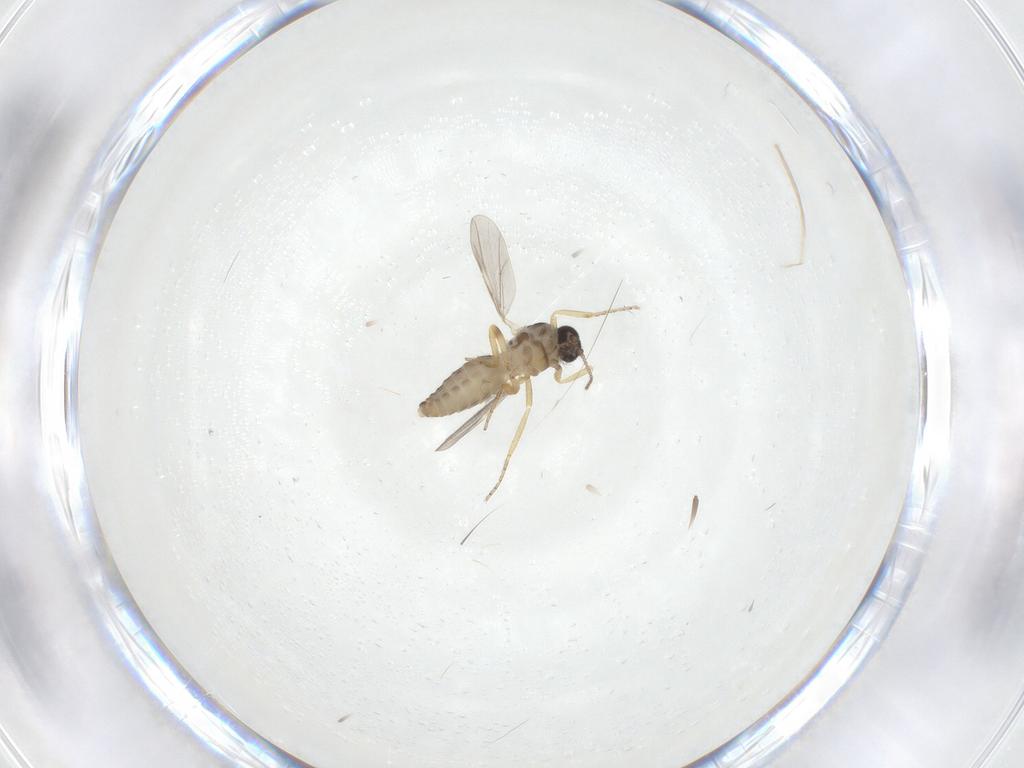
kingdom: Animalia
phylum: Arthropoda
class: Insecta
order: Diptera
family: Ceratopogonidae
